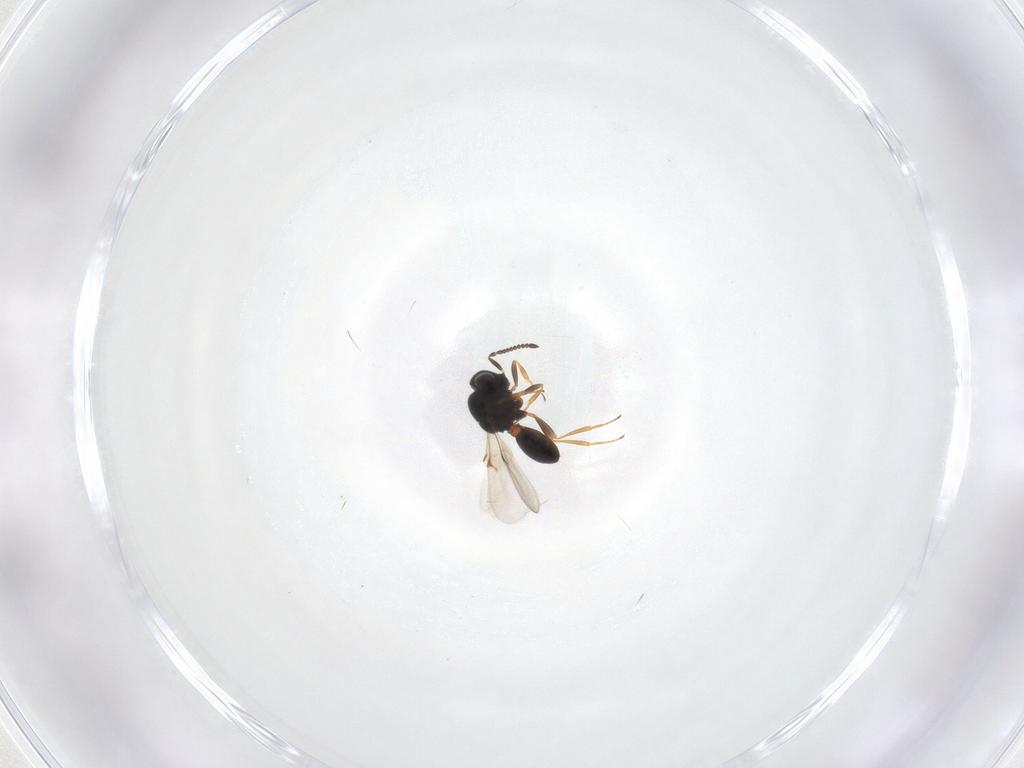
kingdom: Animalia
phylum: Arthropoda
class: Arachnida
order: Araneae
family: Pholcidae
